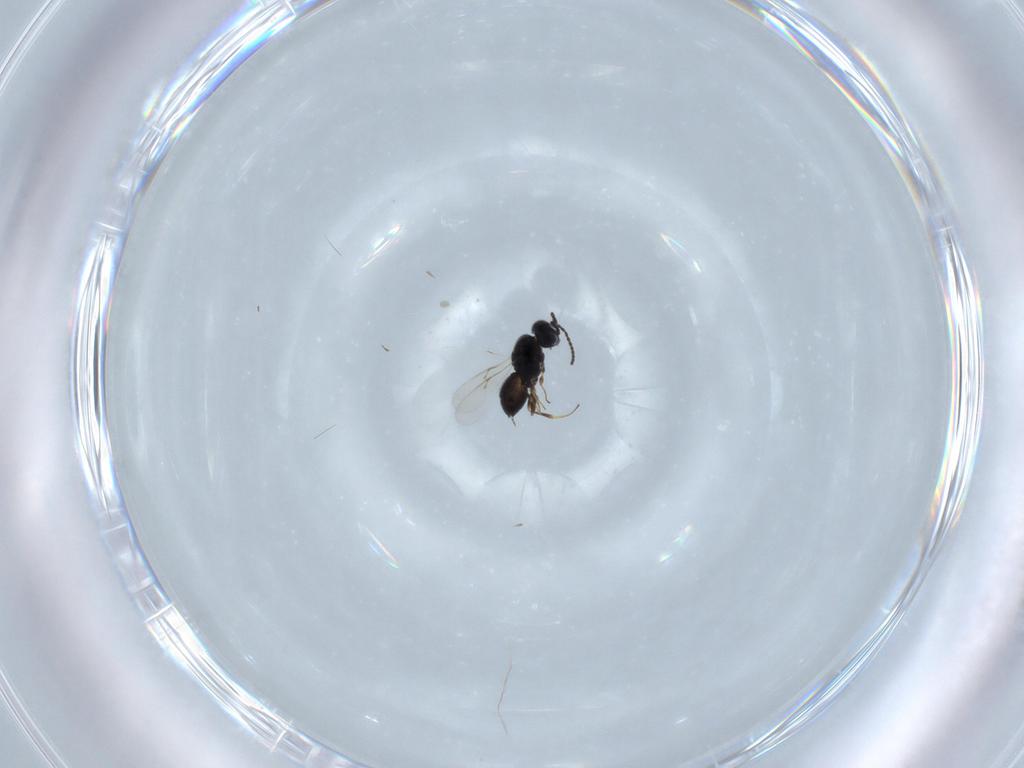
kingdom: Animalia
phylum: Arthropoda
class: Insecta
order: Hymenoptera
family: Scelionidae
